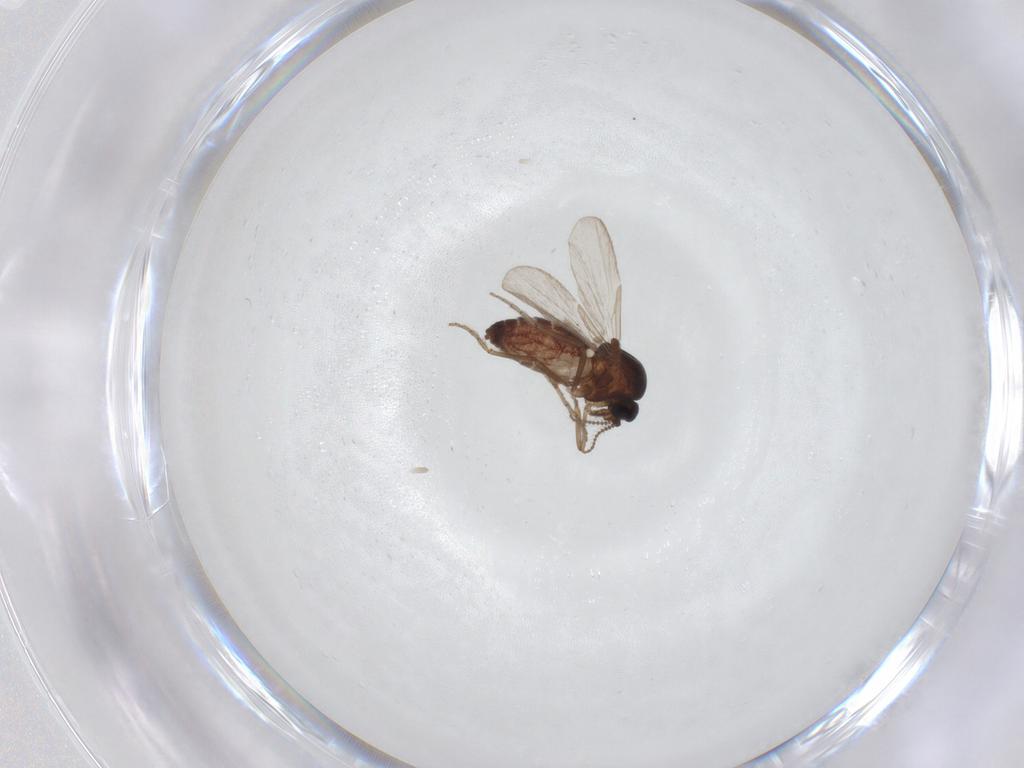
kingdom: Animalia
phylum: Arthropoda
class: Insecta
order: Diptera
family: Ceratopogonidae
